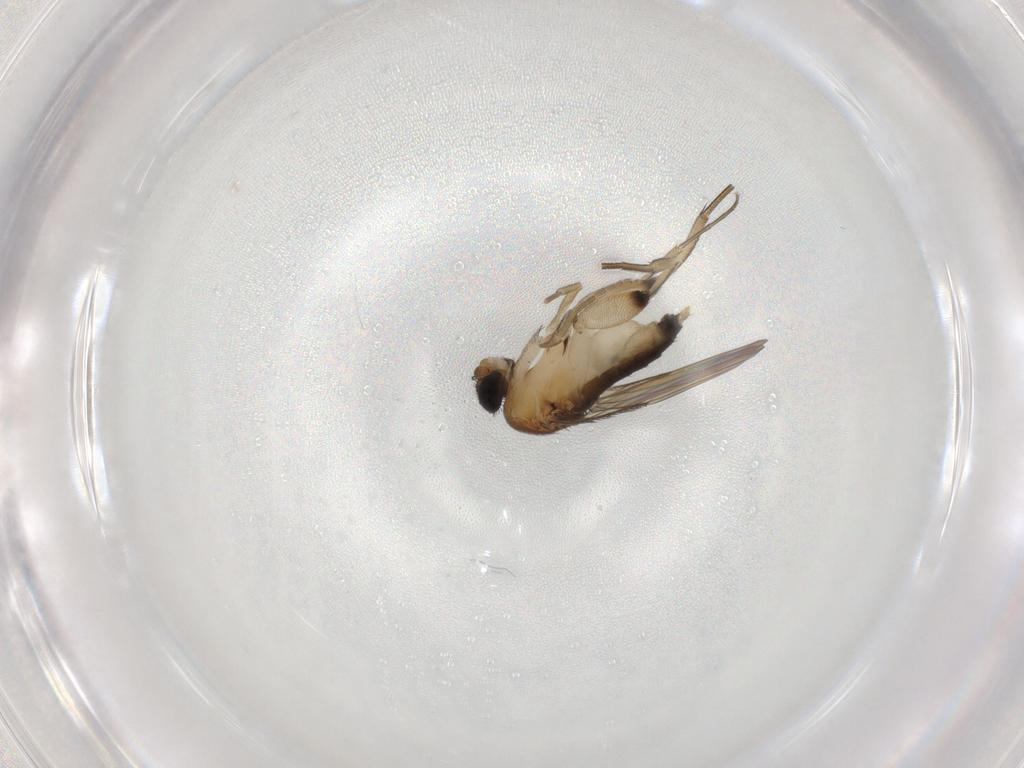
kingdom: Animalia
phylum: Arthropoda
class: Insecta
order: Diptera
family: Phoridae
